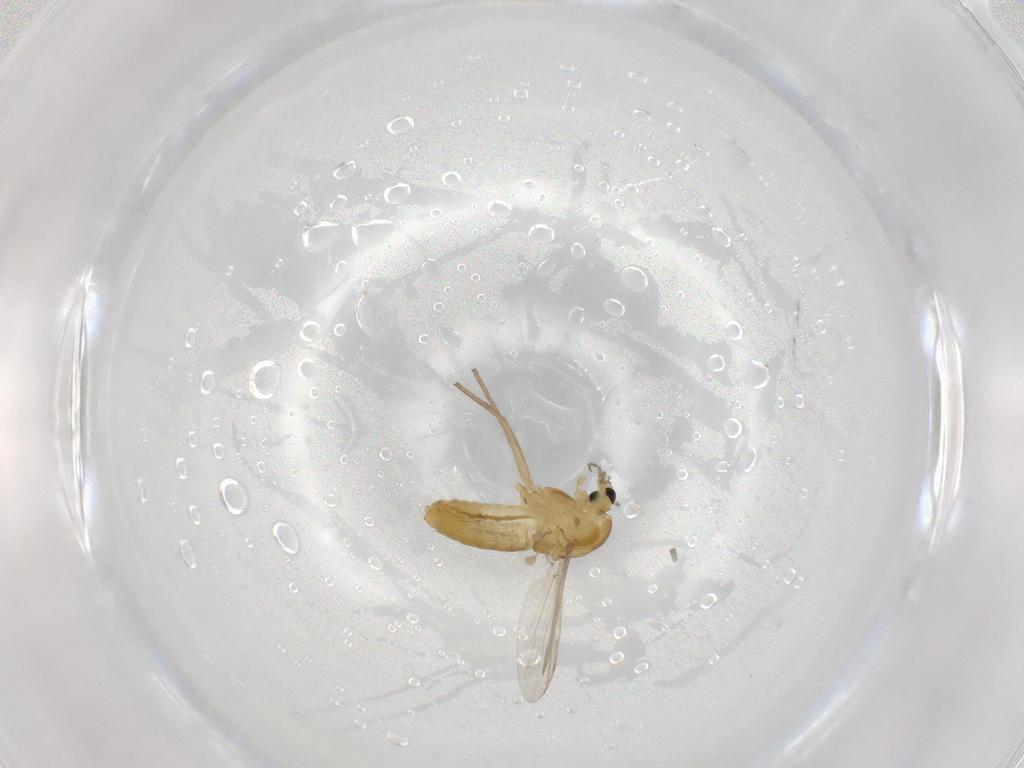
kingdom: Animalia
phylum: Arthropoda
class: Insecta
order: Diptera
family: Chironomidae
